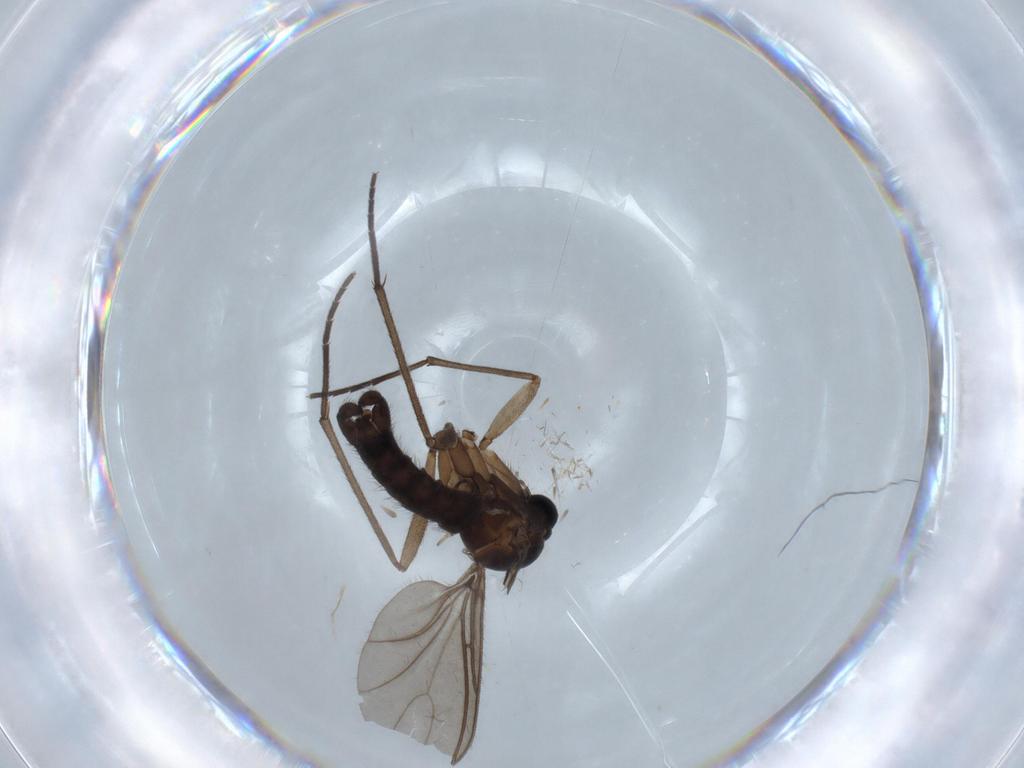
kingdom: Animalia
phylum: Arthropoda
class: Insecta
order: Diptera
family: Sciaridae
